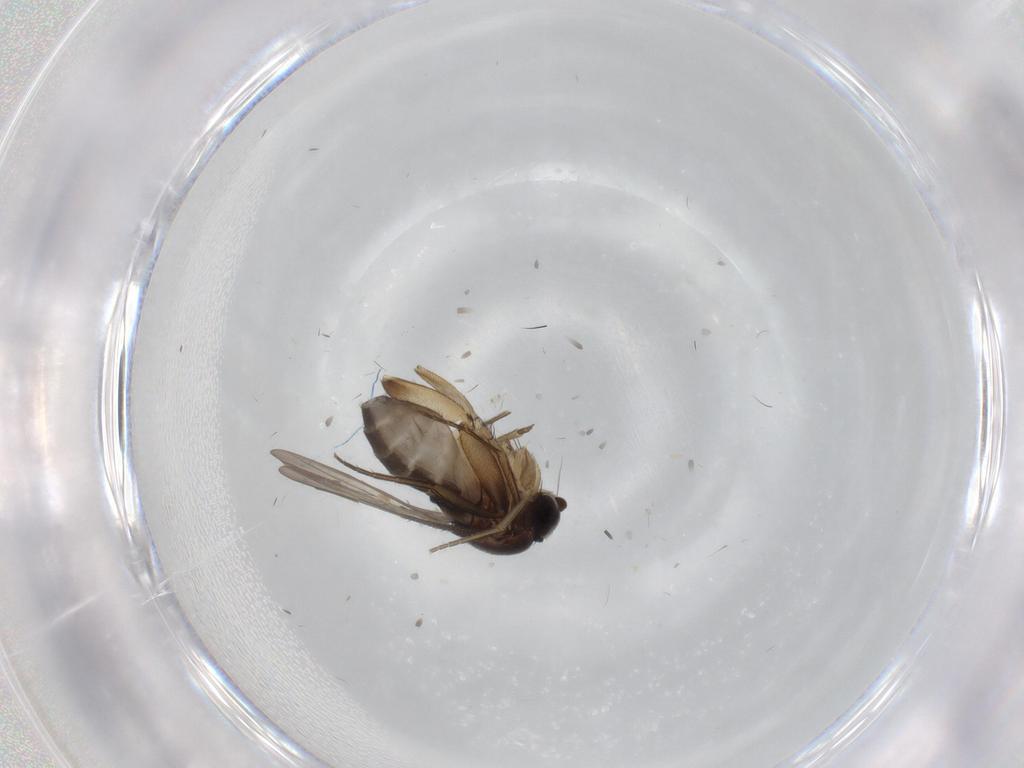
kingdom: Animalia
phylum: Arthropoda
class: Insecta
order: Diptera
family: Phoridae
